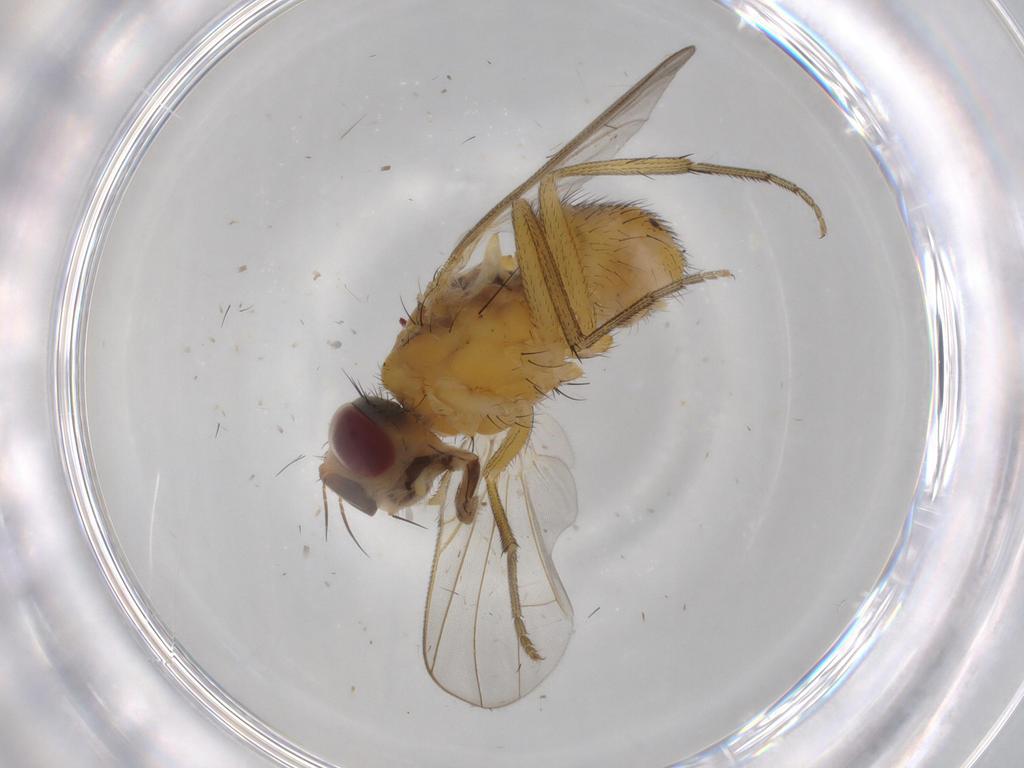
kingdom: Animalia
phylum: Arthropoda
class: Insecta
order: Diptera
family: Muscidae
